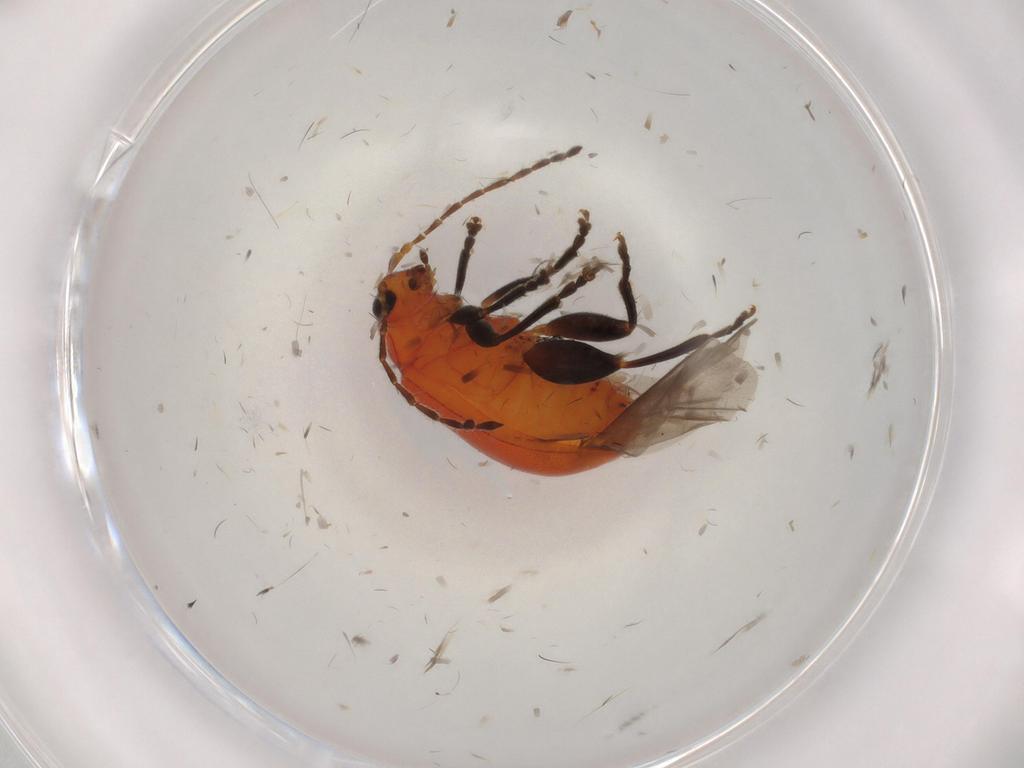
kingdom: Animalia
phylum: Arthropoda
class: Insecta
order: Coleoptera
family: Chrysomelidae
